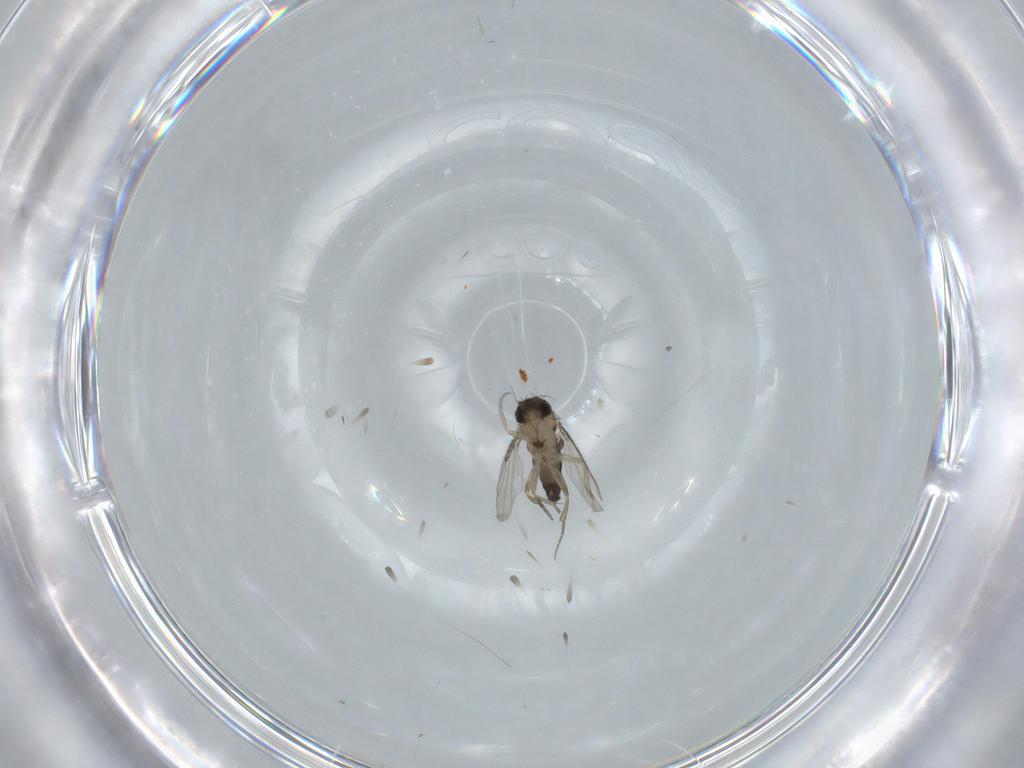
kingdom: Animalia
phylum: Arthropoda
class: Insecta
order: Diptera
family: Phoridae
